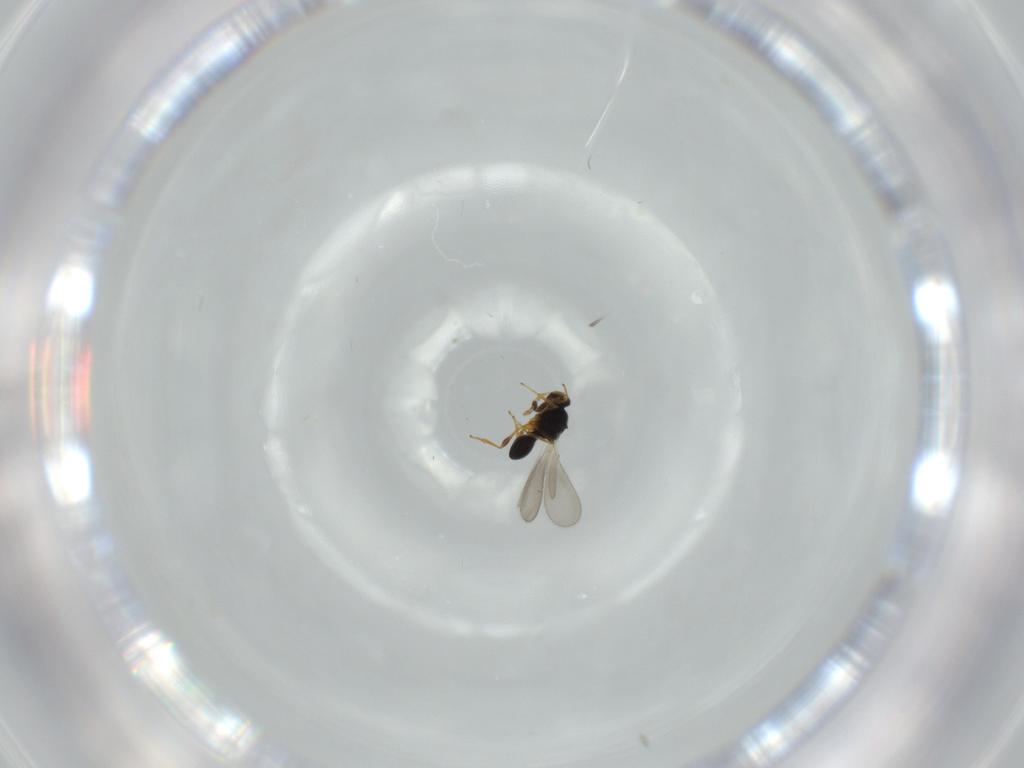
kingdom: Animalia
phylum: Arthropoda
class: Insecta
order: Hymenoptera
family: Platygastridae
